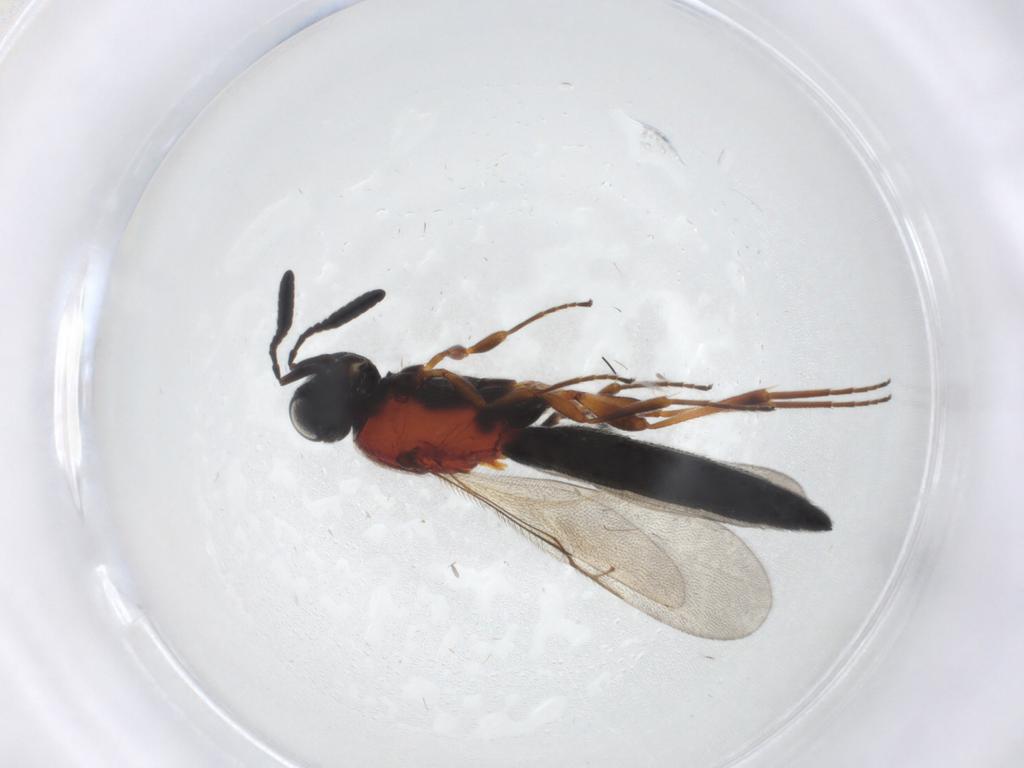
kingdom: Animalia
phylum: Arthropoda
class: Insecta
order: Hymenoptera
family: Scelionidae
